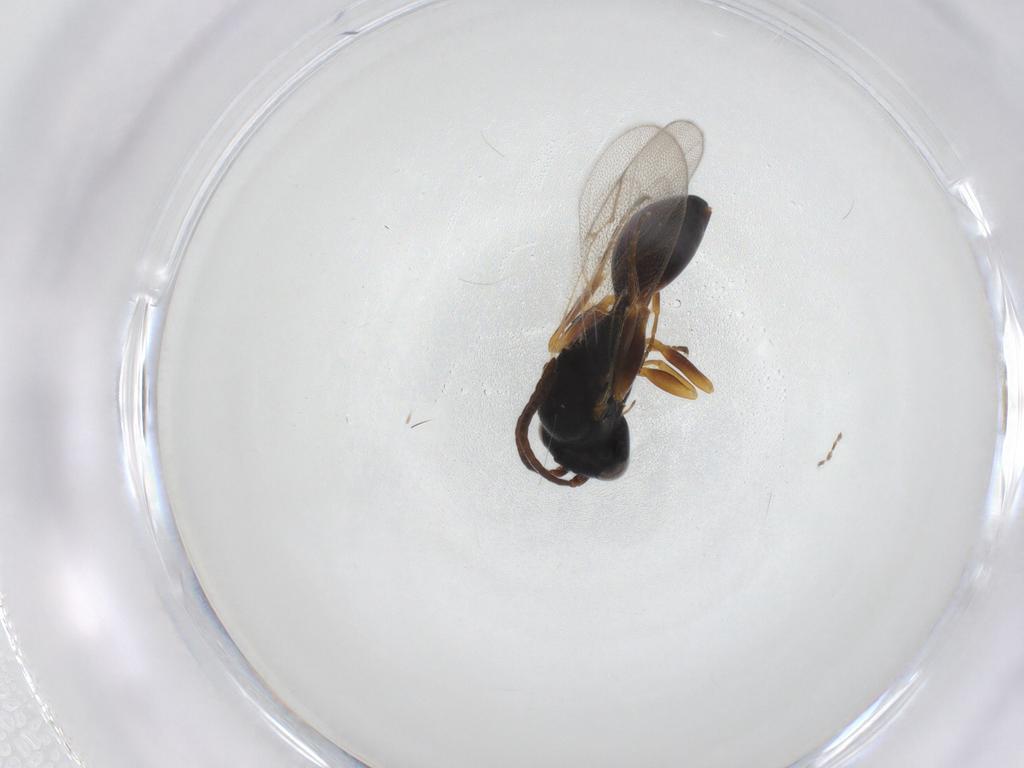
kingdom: Animalia
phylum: Arthropoda
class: Insecta
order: Hymenoptera
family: Figitidae
